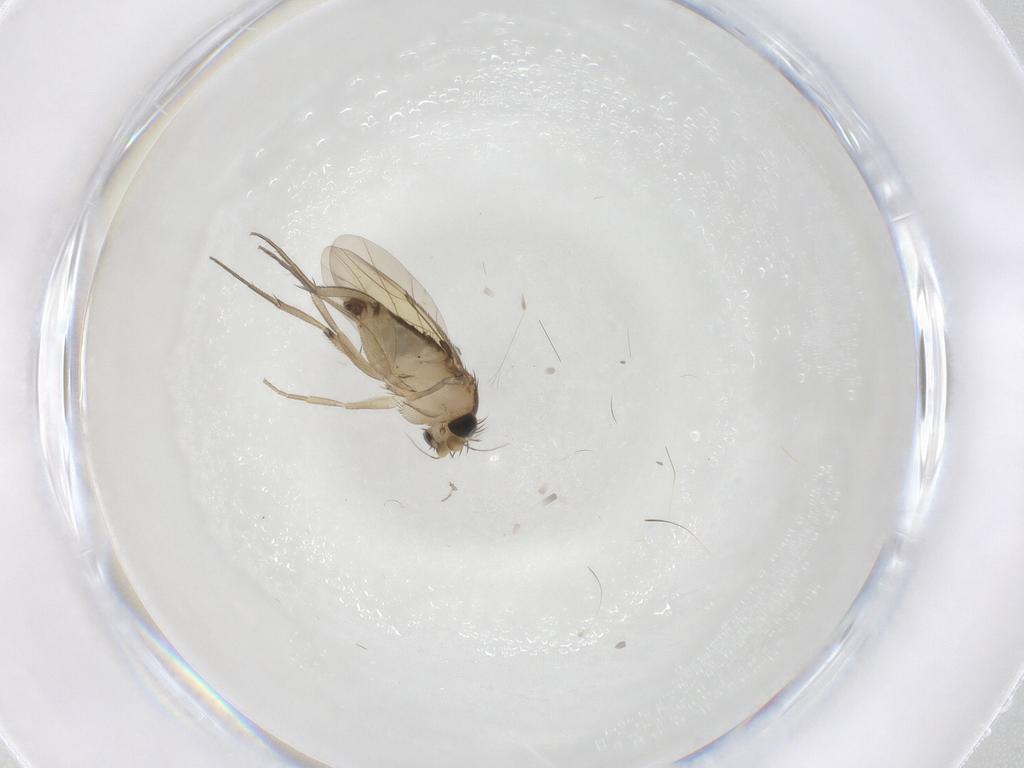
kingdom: Animalia
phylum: Arthropoda
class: Insecta
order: Diptera
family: Phoridae
